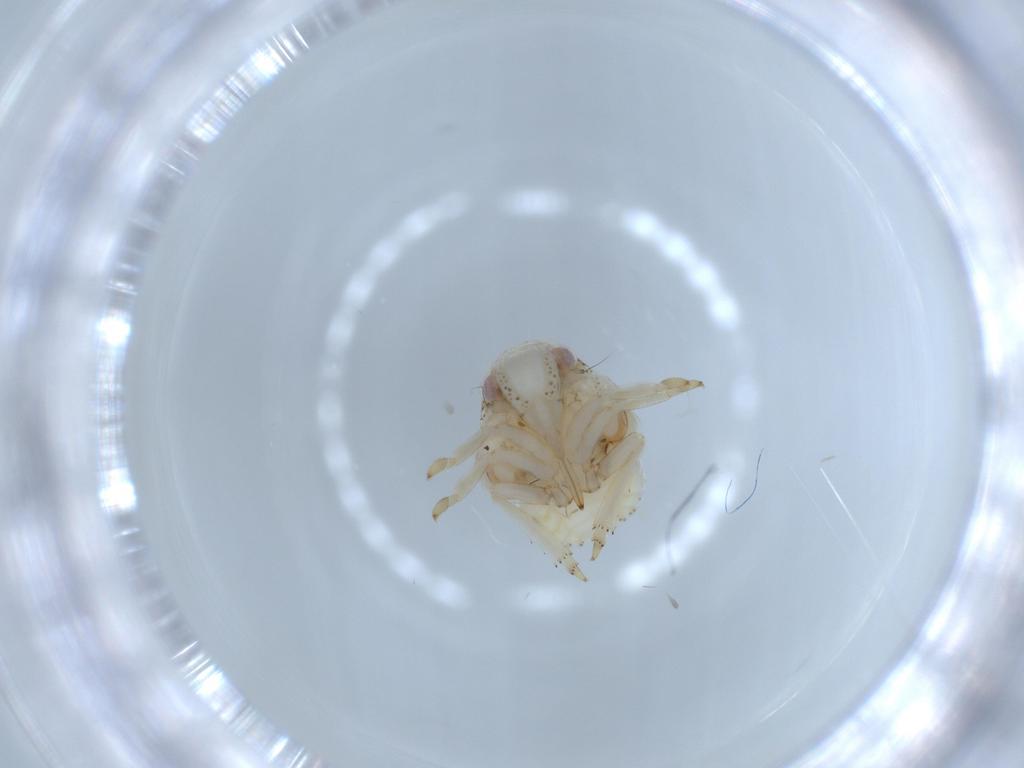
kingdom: Animalia
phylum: Arthropoda
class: Insecta
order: Hemiptera
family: Acanaloniidae
